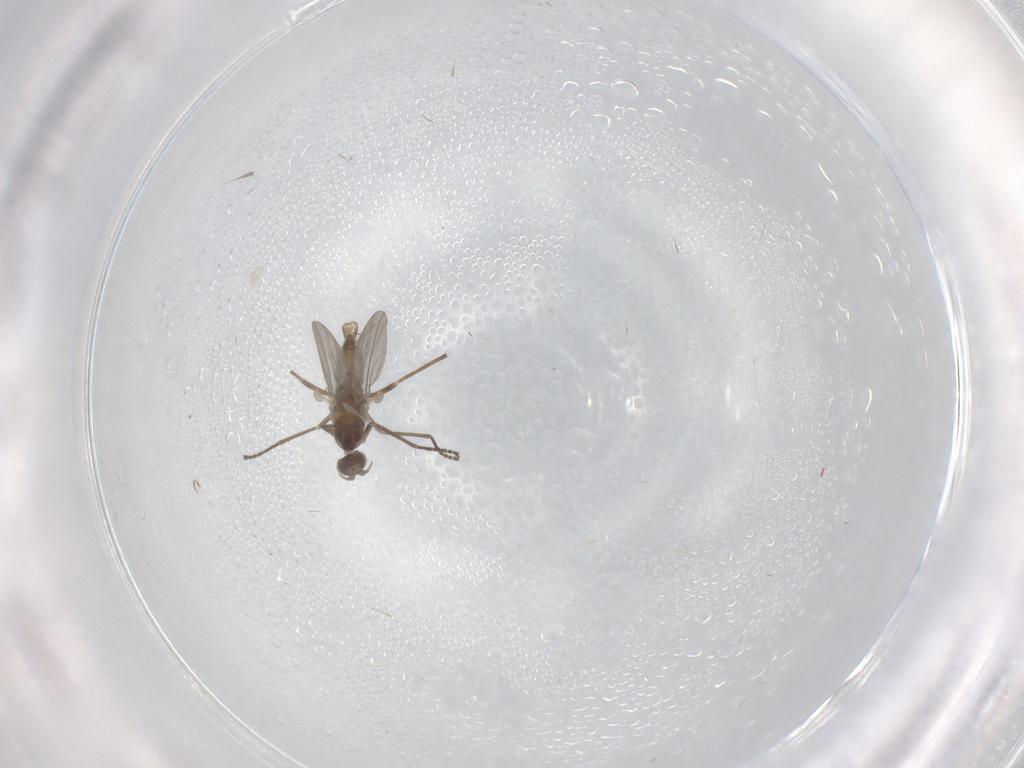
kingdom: Animalia
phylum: Arthropoda
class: Insecta
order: Diptera
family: Cecidomyiidae
